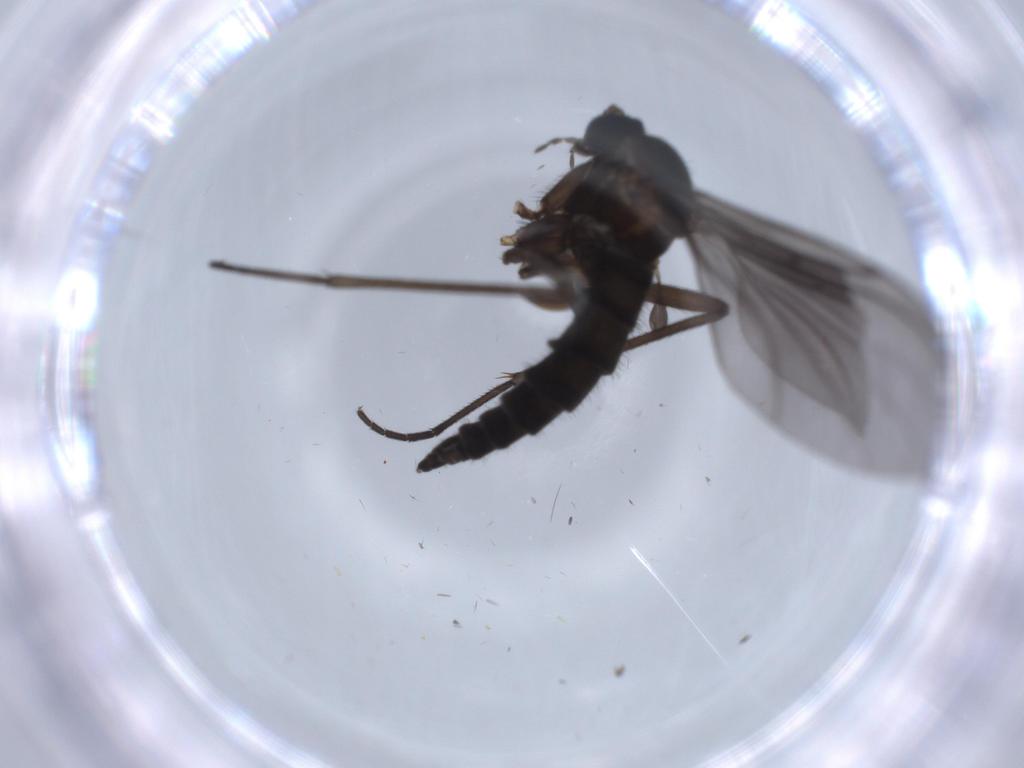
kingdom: Animalia
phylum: Arthropoda
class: Insecta
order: Diptera
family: Sciaridae
